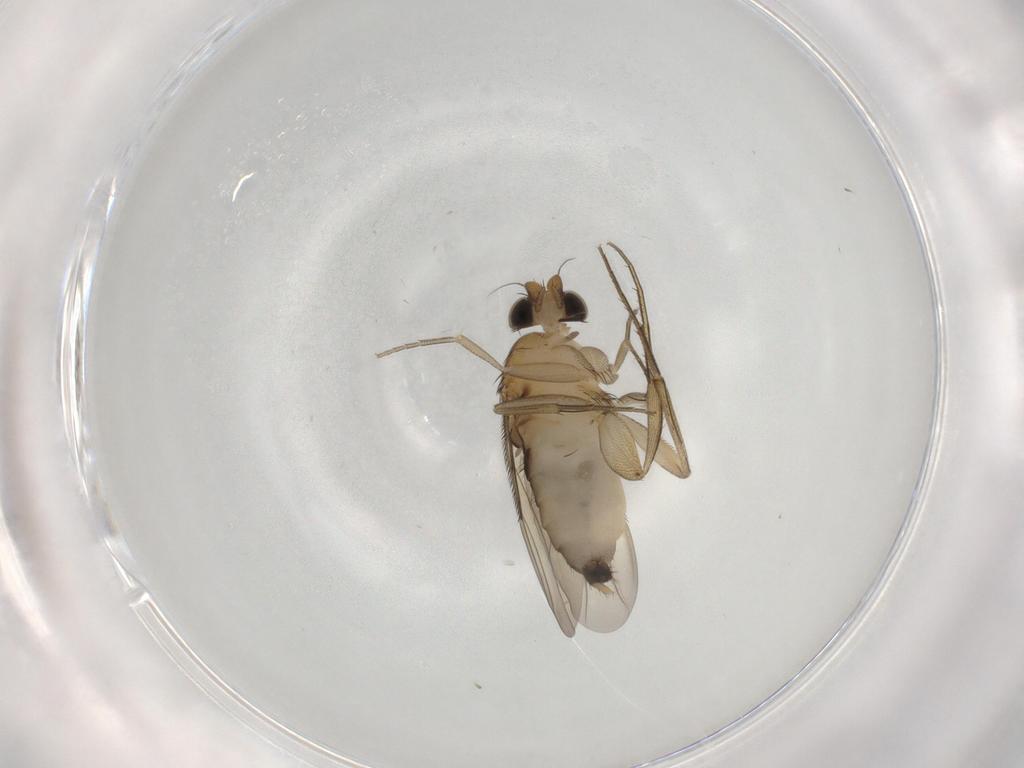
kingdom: Animalia
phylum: Arthropoda
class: Insecta
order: Diptera
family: Phoridae
